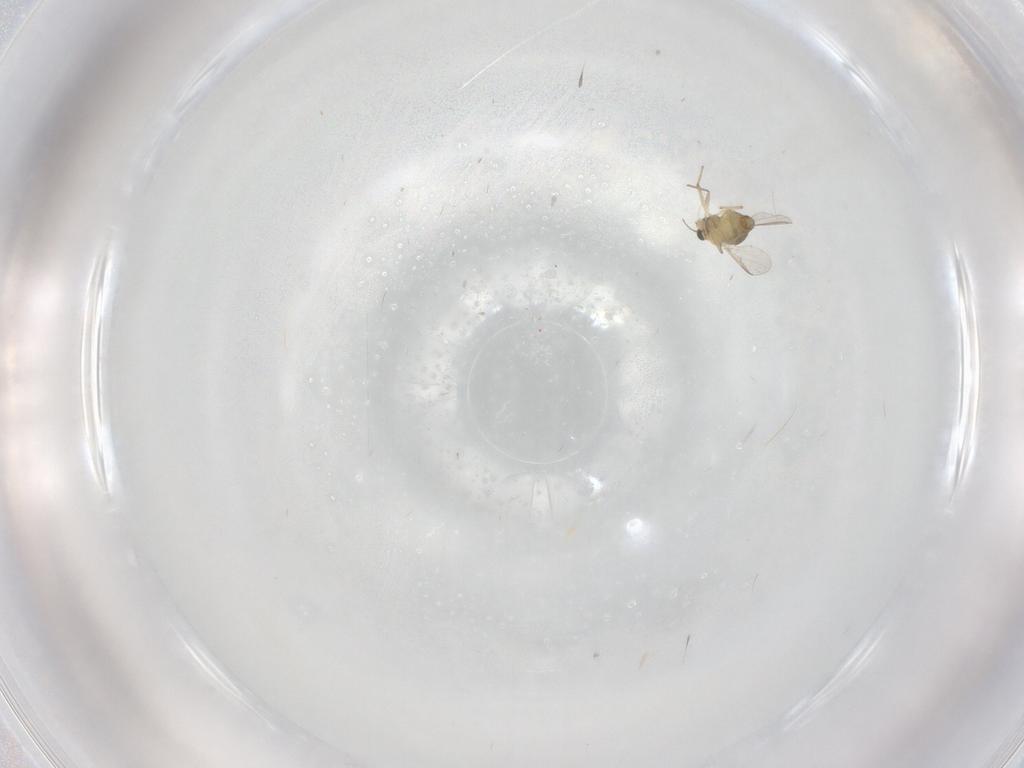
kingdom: Animalia
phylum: Arthropoda
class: Insecta
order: Diptera
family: Chironomidae
